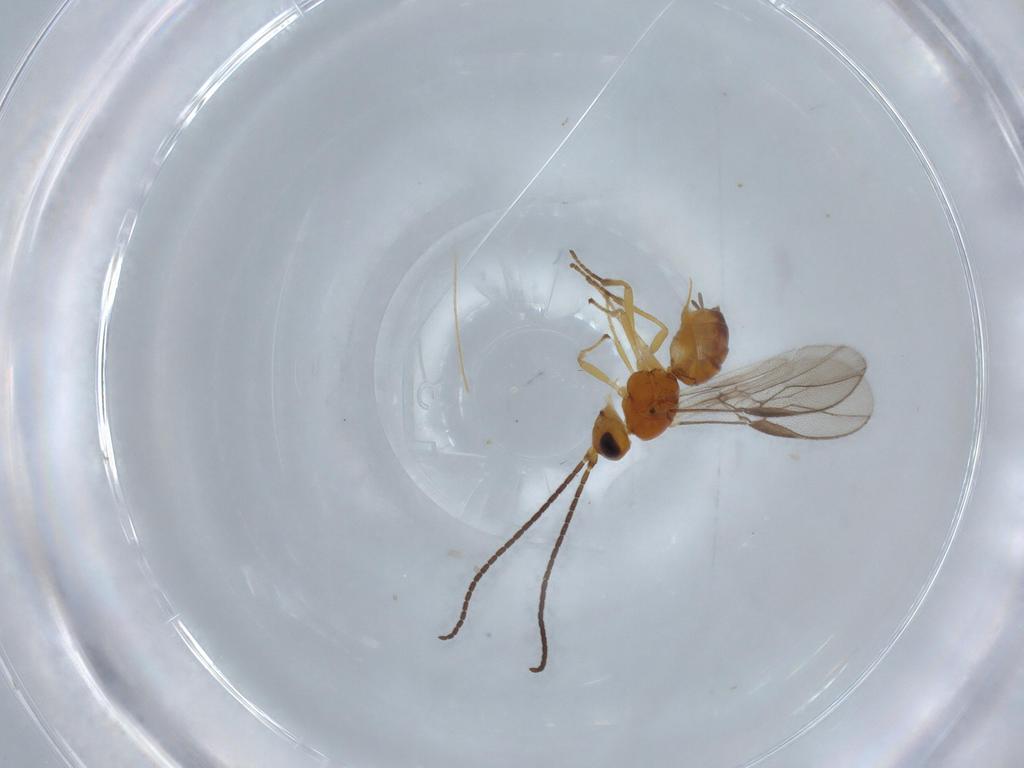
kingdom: Animalia
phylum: Arthropoda
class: Insecta
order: Hymenoptera
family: Braconidae
